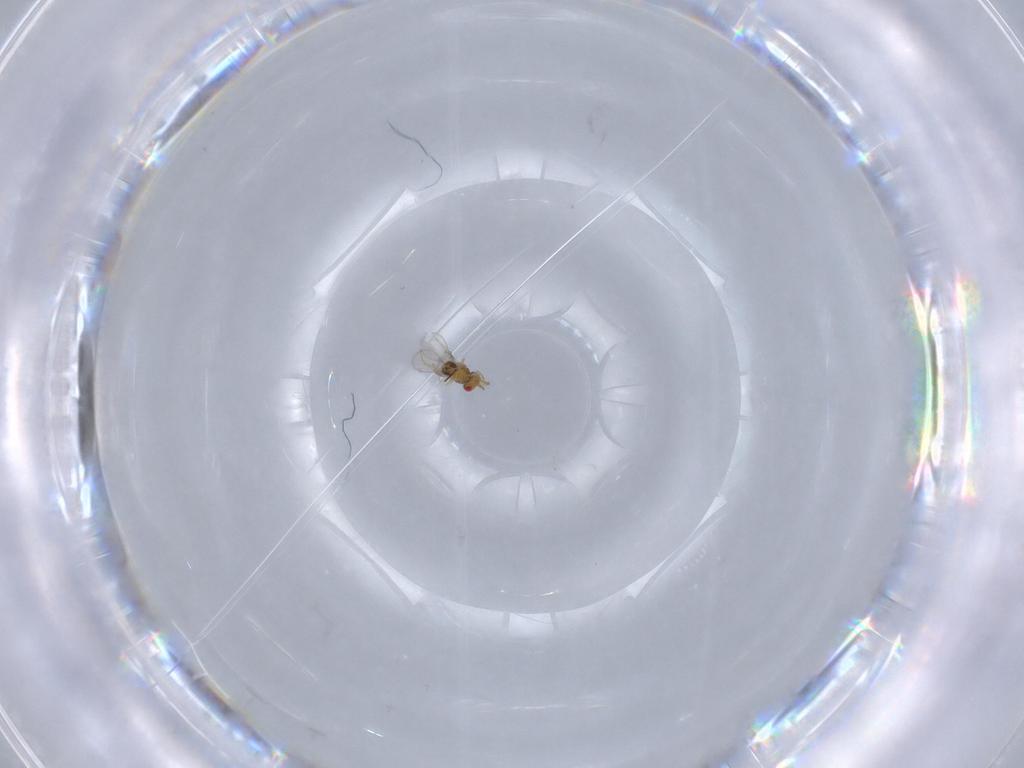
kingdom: Animalia
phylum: Arthropoda
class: Insecta
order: Hymenoptera
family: Trichogrammatidae
